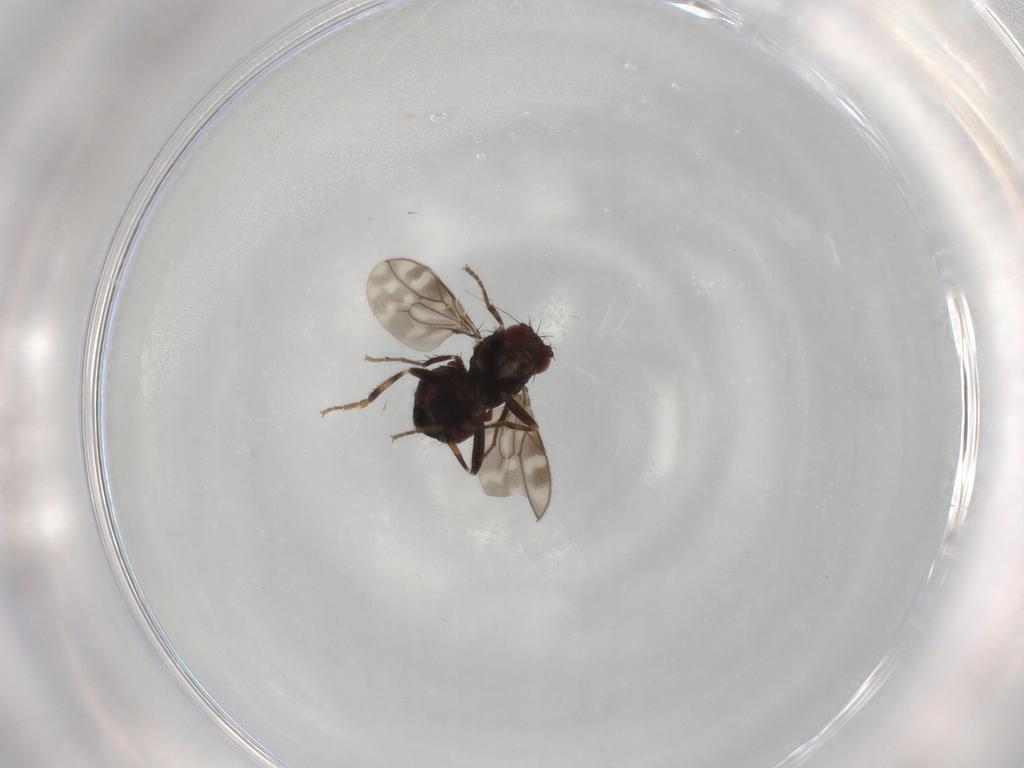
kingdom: Animalia
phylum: Arthropoda
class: Insecta
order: Diptera
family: Sphaeroceridae
